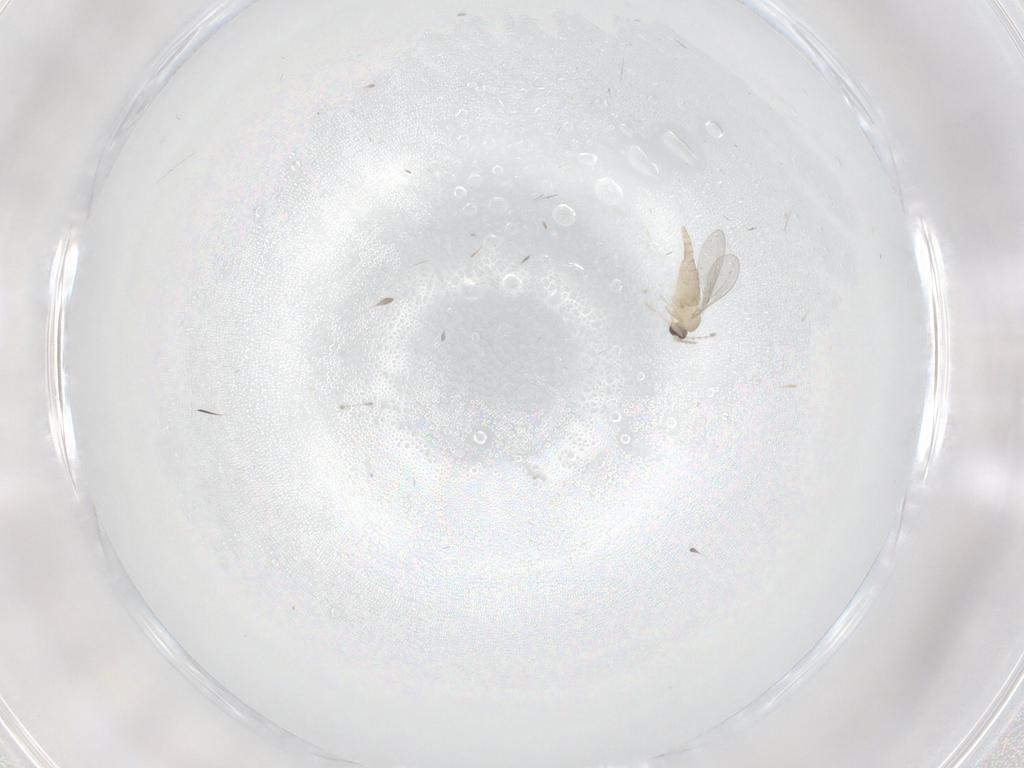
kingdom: Animalia
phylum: Arthropoda
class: Insecta
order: Diptera
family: Cecidomyiidae
